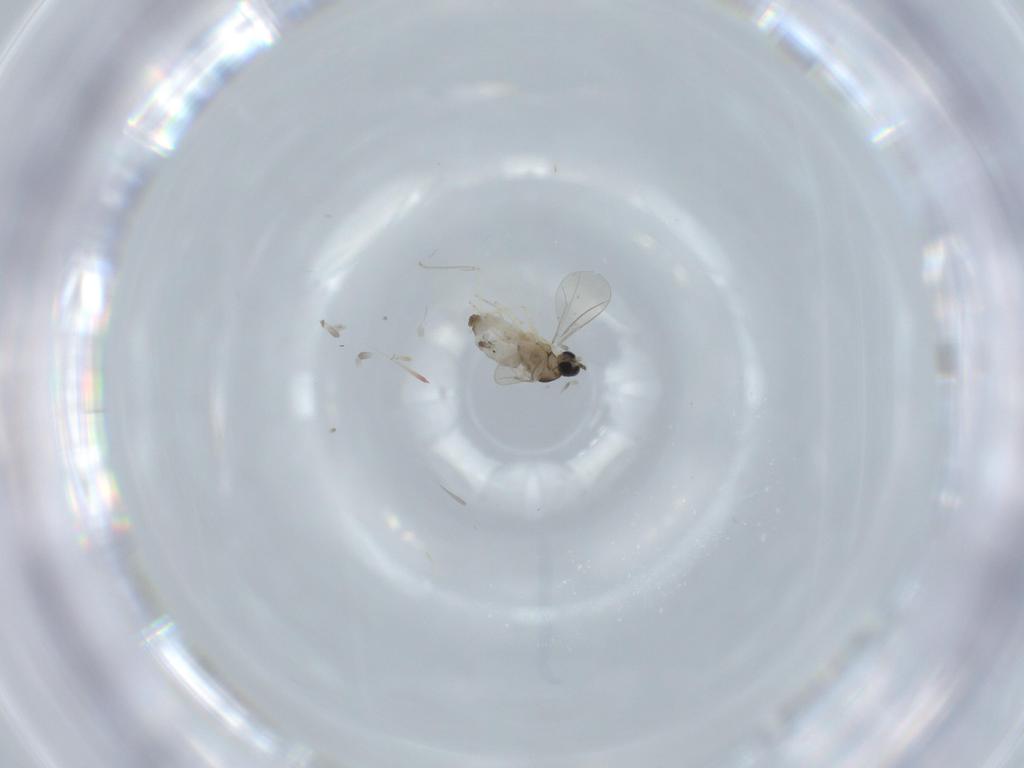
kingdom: Animalia
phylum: Arthropoda
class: Insecta
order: Diptera
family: Cecidomyiidae
